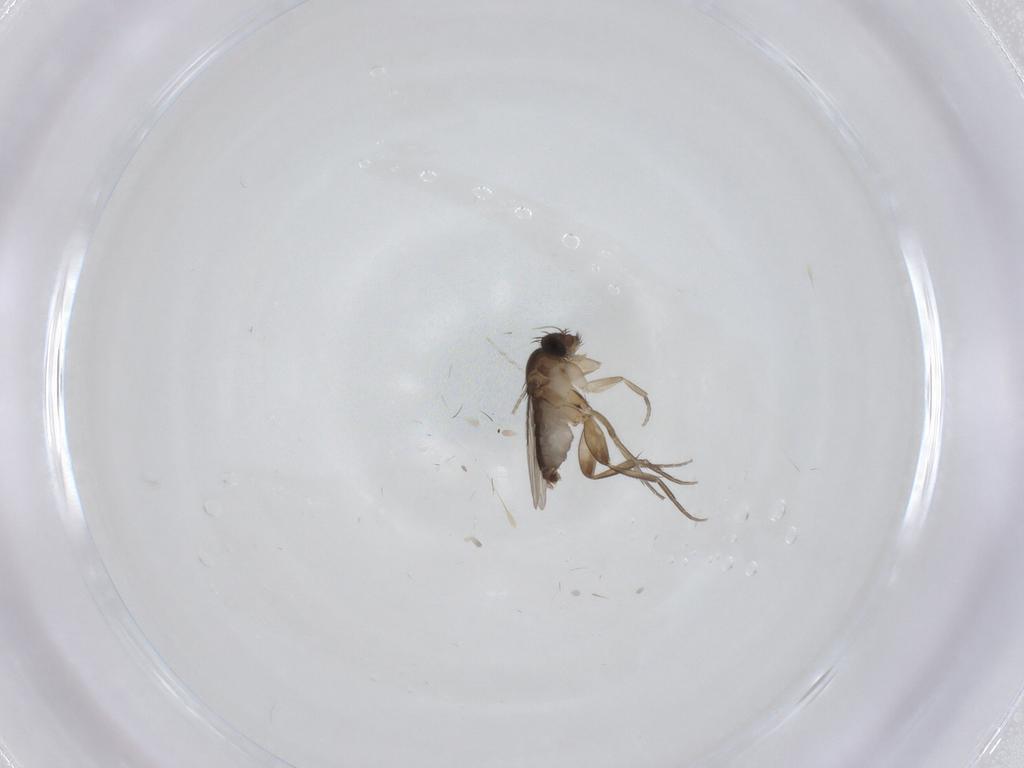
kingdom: Animalia
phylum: Arthropoda
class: Insecta
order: Diptera
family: Phoridae
